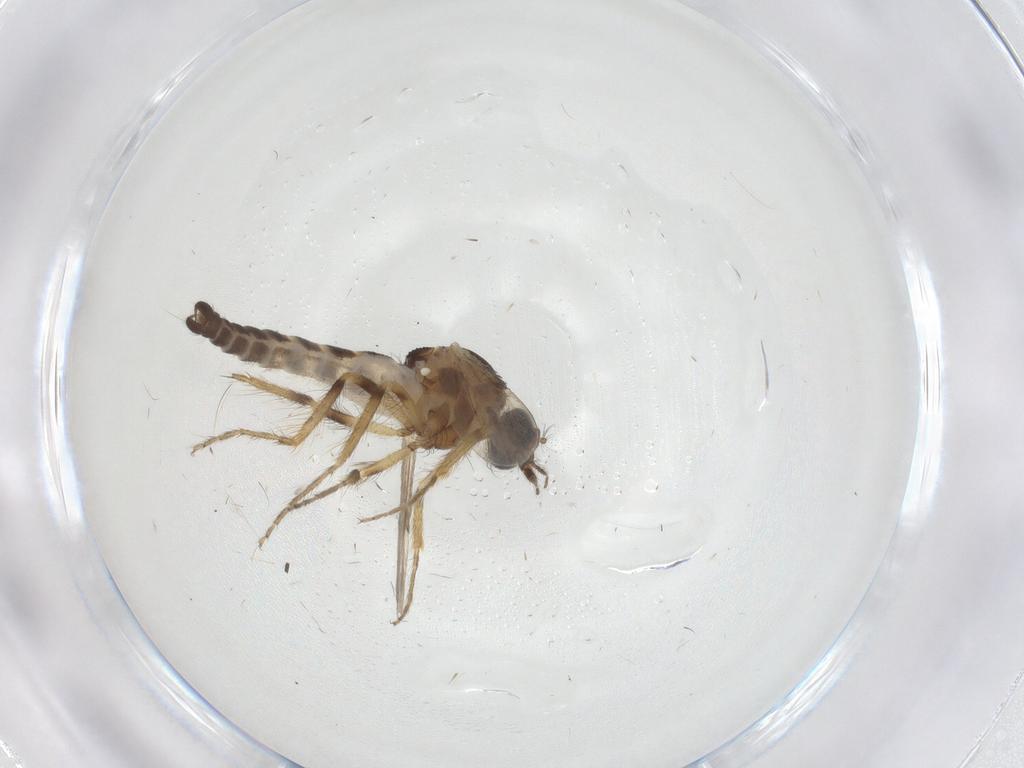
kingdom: Animalia
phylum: Arthropoda
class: Insecta
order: Diptera
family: Ceratopogonidae
